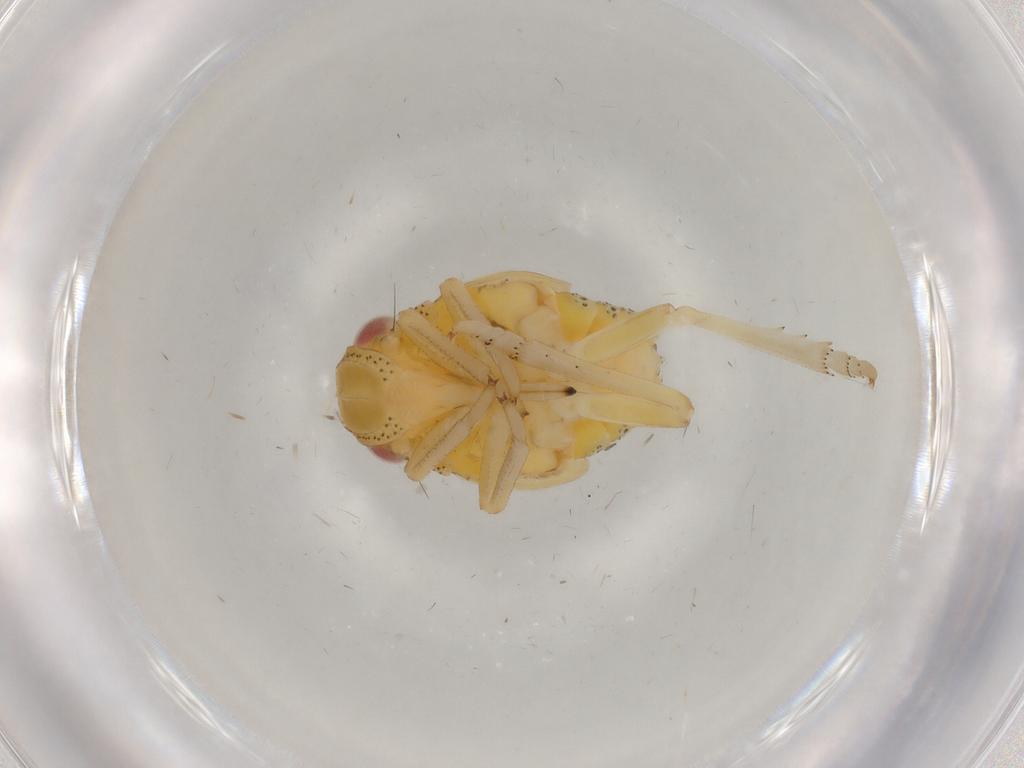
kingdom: Animalia
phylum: Arthropoda
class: Insecta
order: Hemiptera
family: Tropiduchidae
